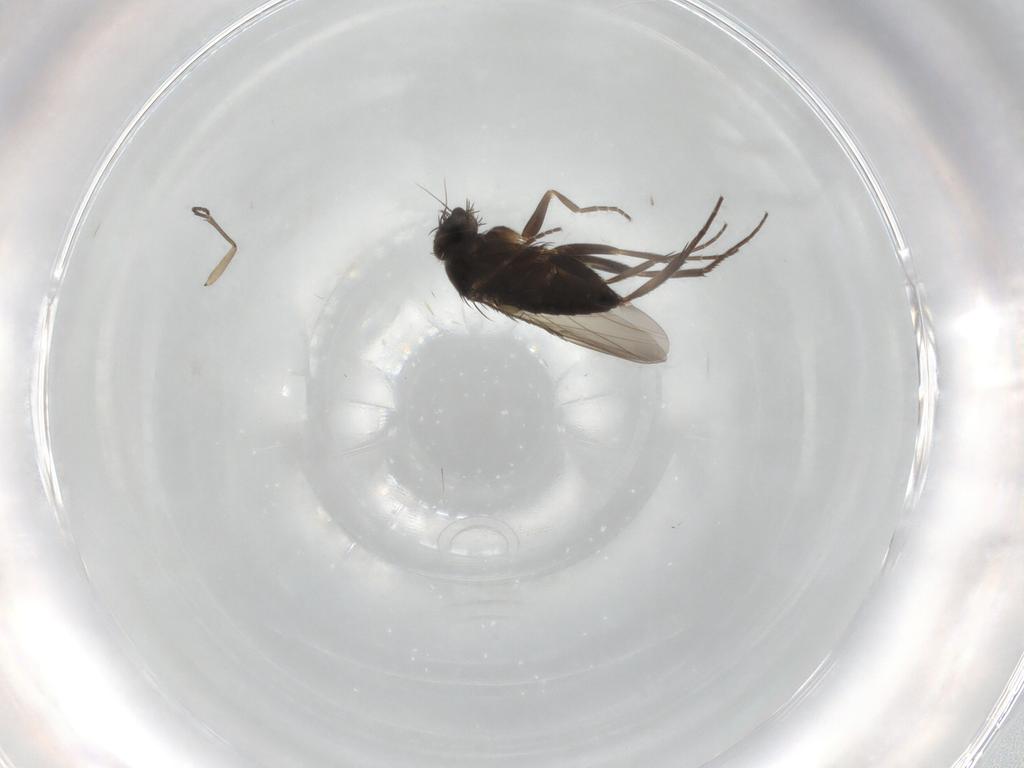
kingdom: Animalia
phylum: Arthropoda
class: Insecta
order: Diptera
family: Phoridae
